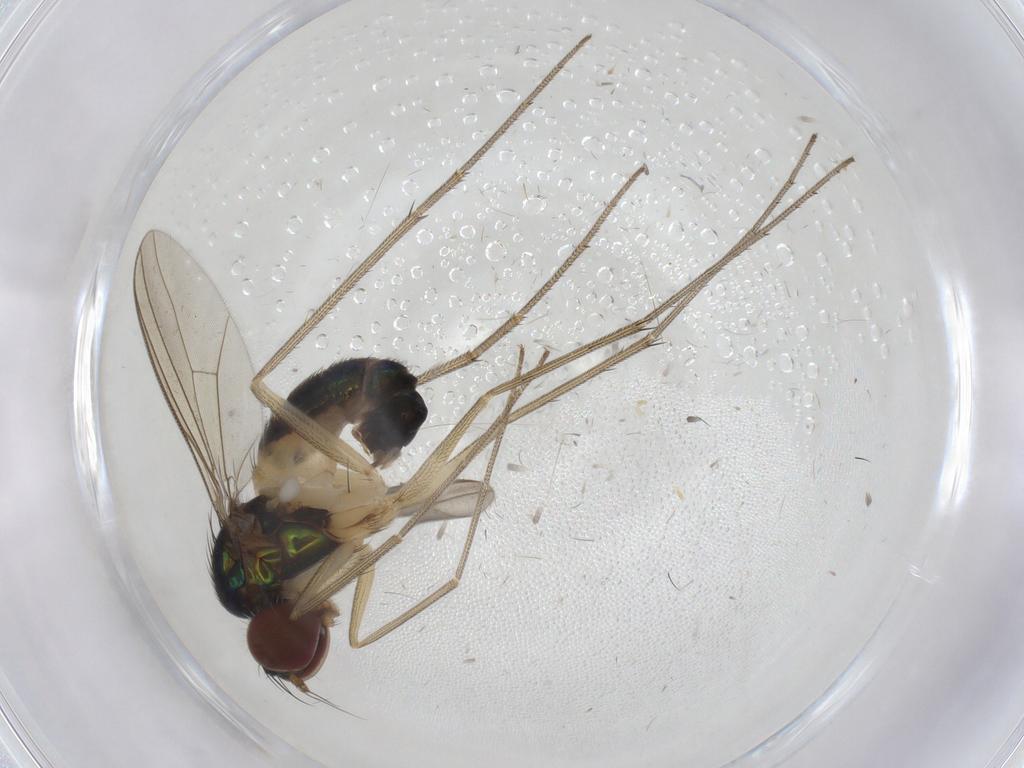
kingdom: Animalia
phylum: Arthropoda
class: Insecta
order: Diptera
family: Dolichopodidae
